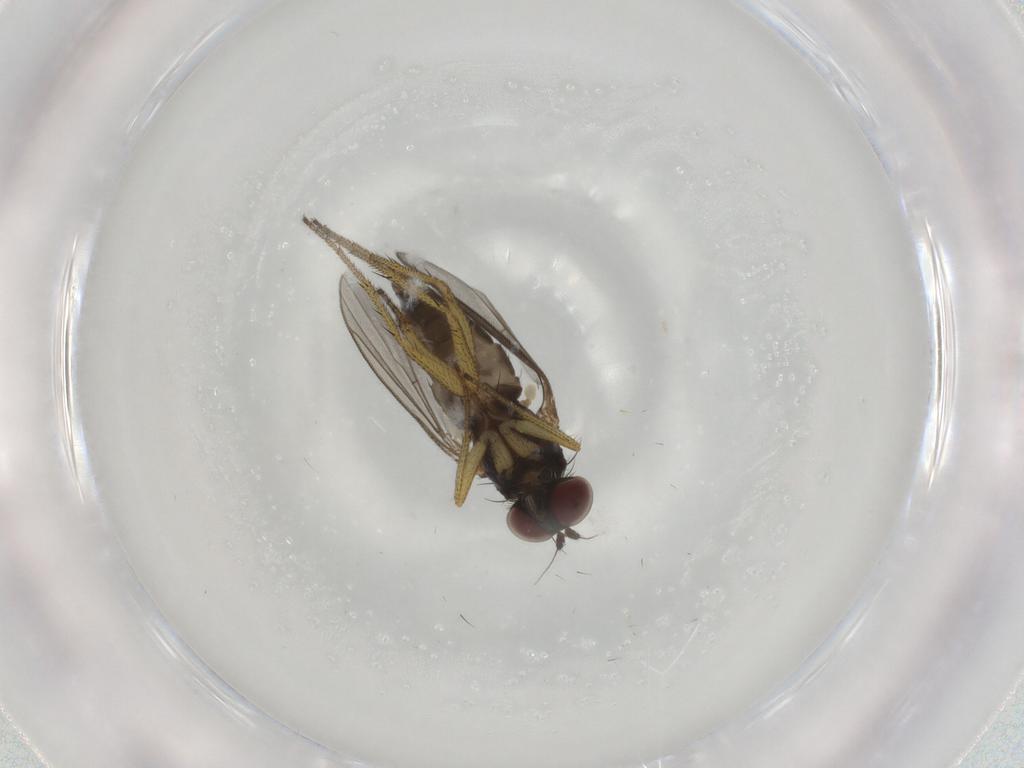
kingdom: Animalia
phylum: Arthropoda
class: Insecta
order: Diptera
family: Dolichopodidae
